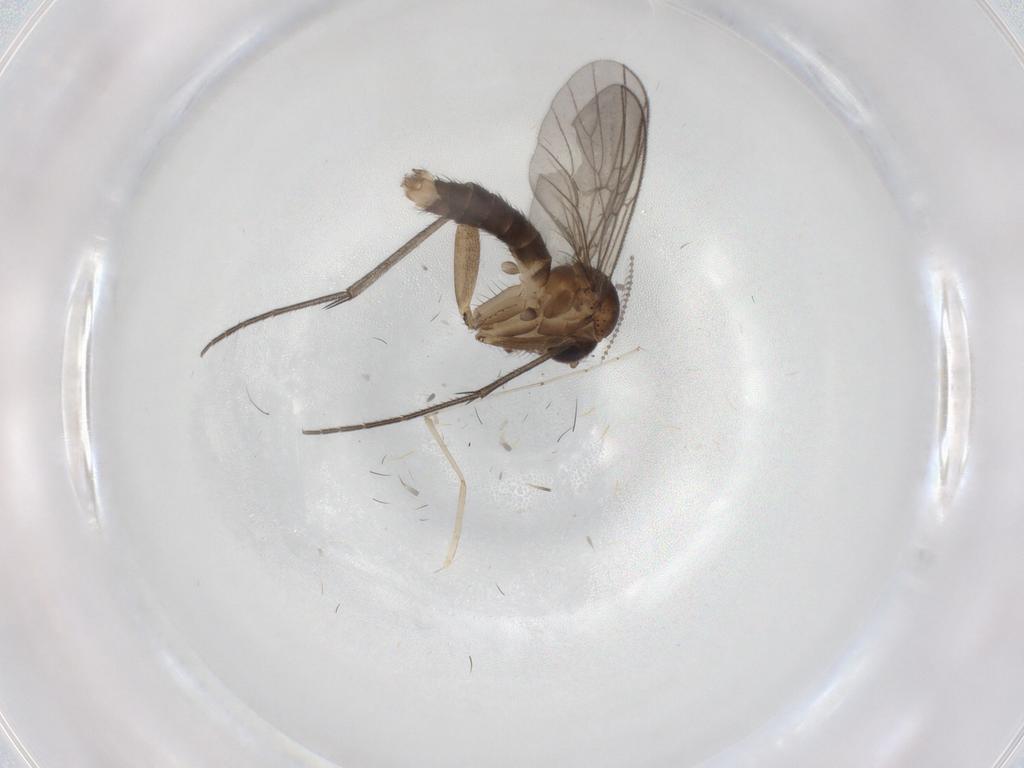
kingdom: Animalia
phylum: Arthropoda
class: Insecta
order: Diptera
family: Mycetophilidae
